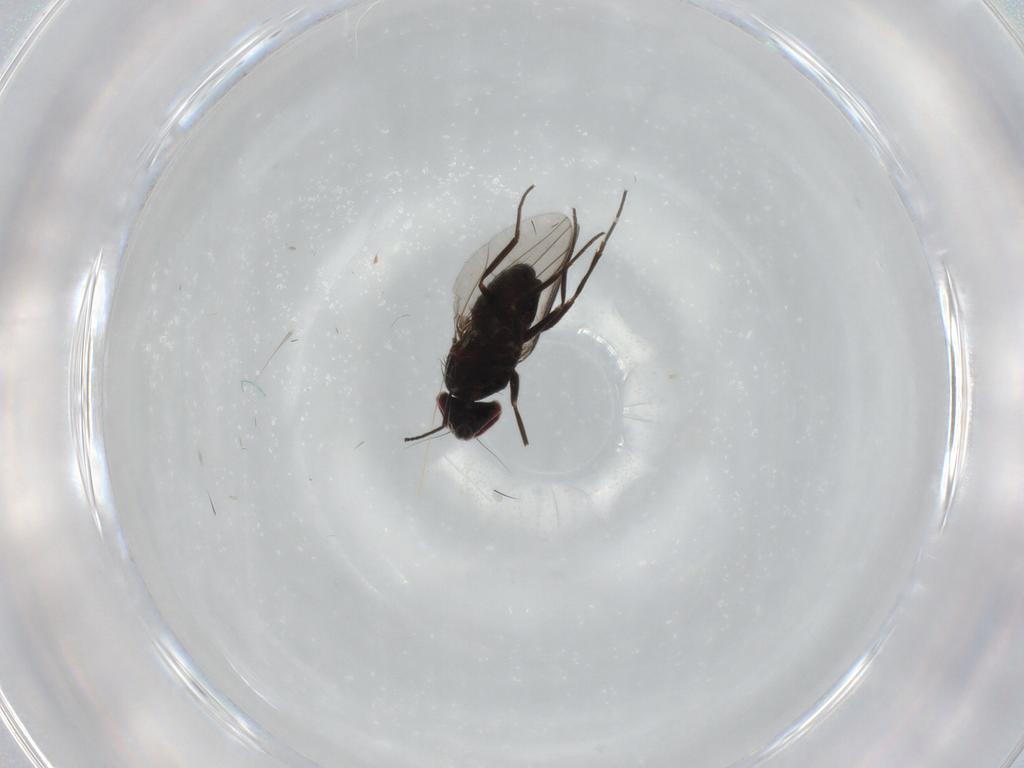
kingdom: Animalia
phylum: Arthropoda
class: Insecta
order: Diptera
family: Dolichopodidae
